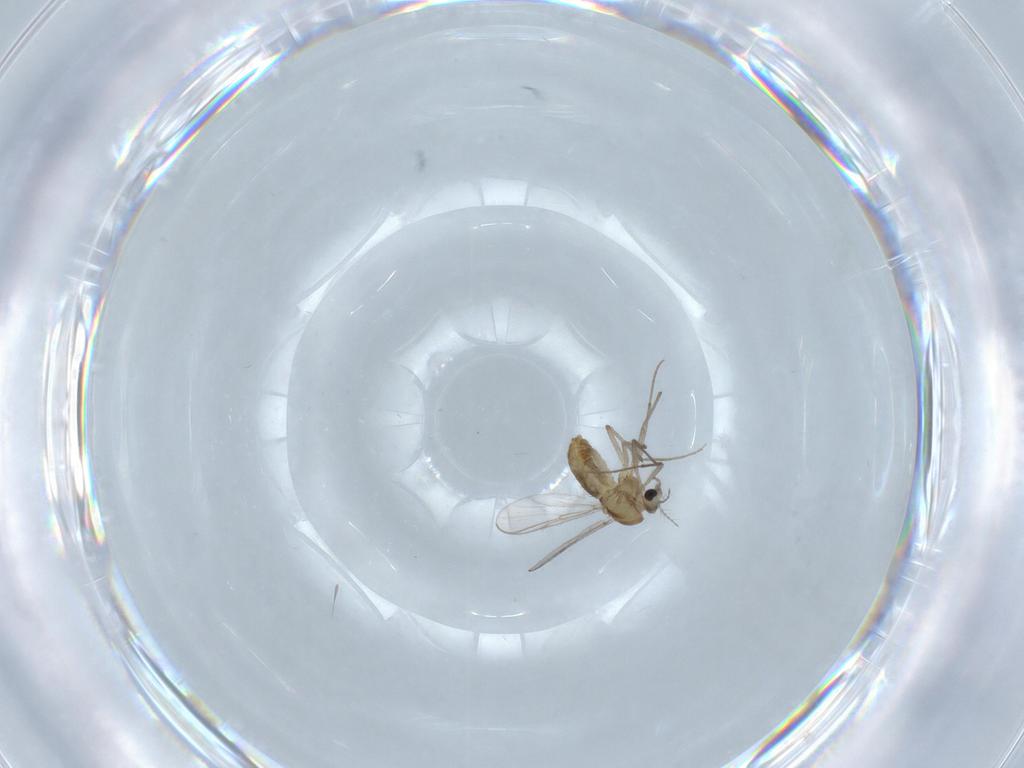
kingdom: Animalia
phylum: Arthropoda
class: Insecta
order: Diptera
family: Chironomidae
